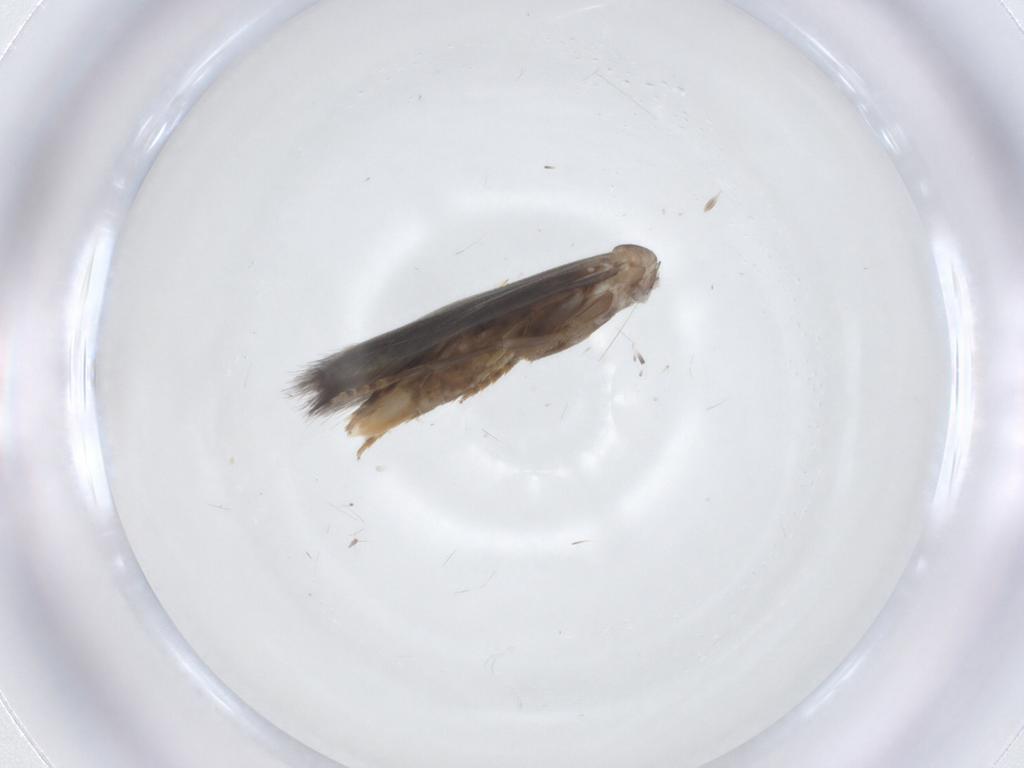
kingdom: Animalia
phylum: Arthropoda
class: Insecta
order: Lepidoptera
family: Elachistidae
